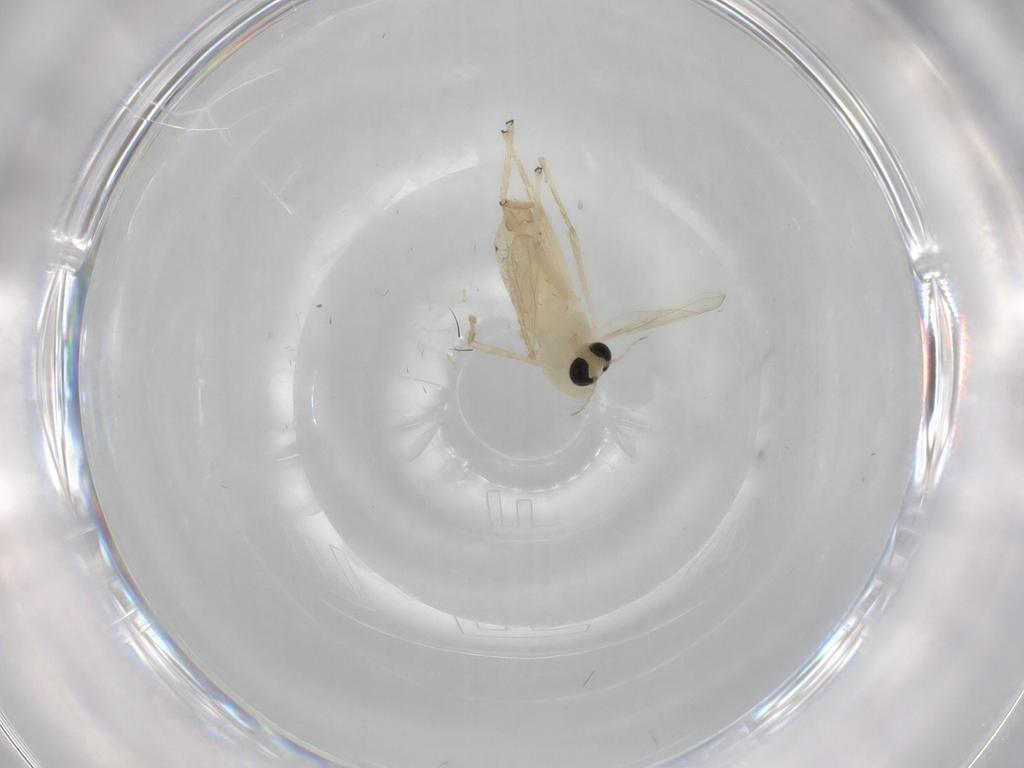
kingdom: Animalia
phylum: Arthropoda
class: Insecta
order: Diptera
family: Chironomidae
